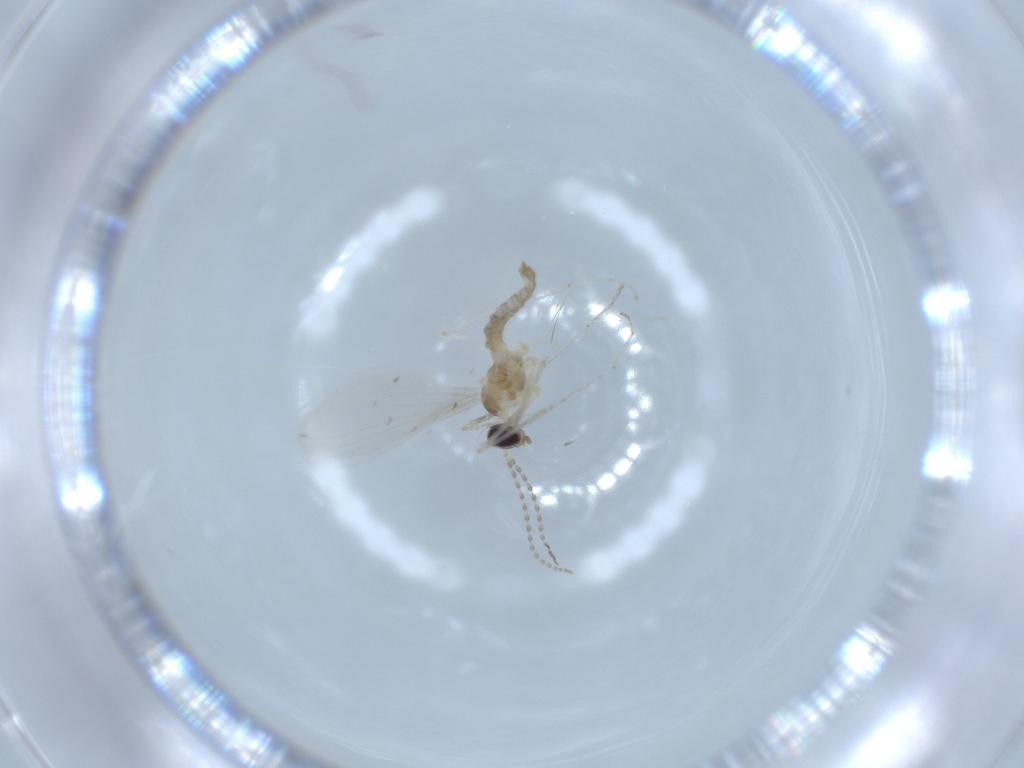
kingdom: Animalia
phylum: Arthropoda
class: Insecta
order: Diptera
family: Cecidomyiidae
